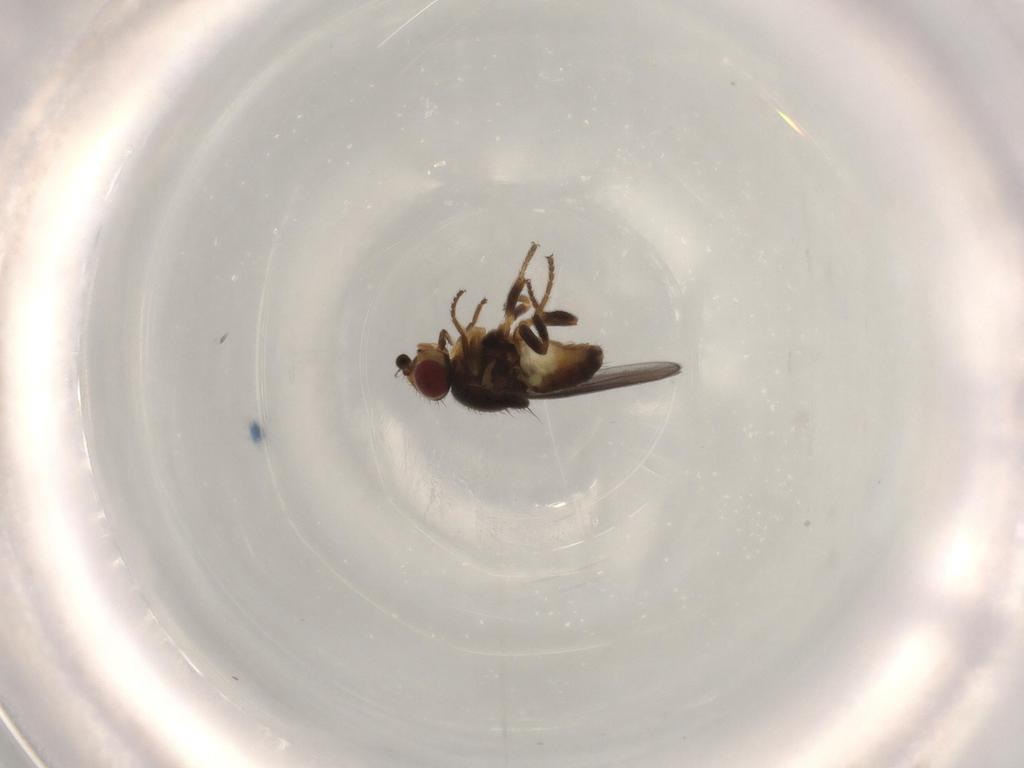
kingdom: Animalia
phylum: Arthropoda
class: Insecta
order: Diptera
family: Chloropidae
